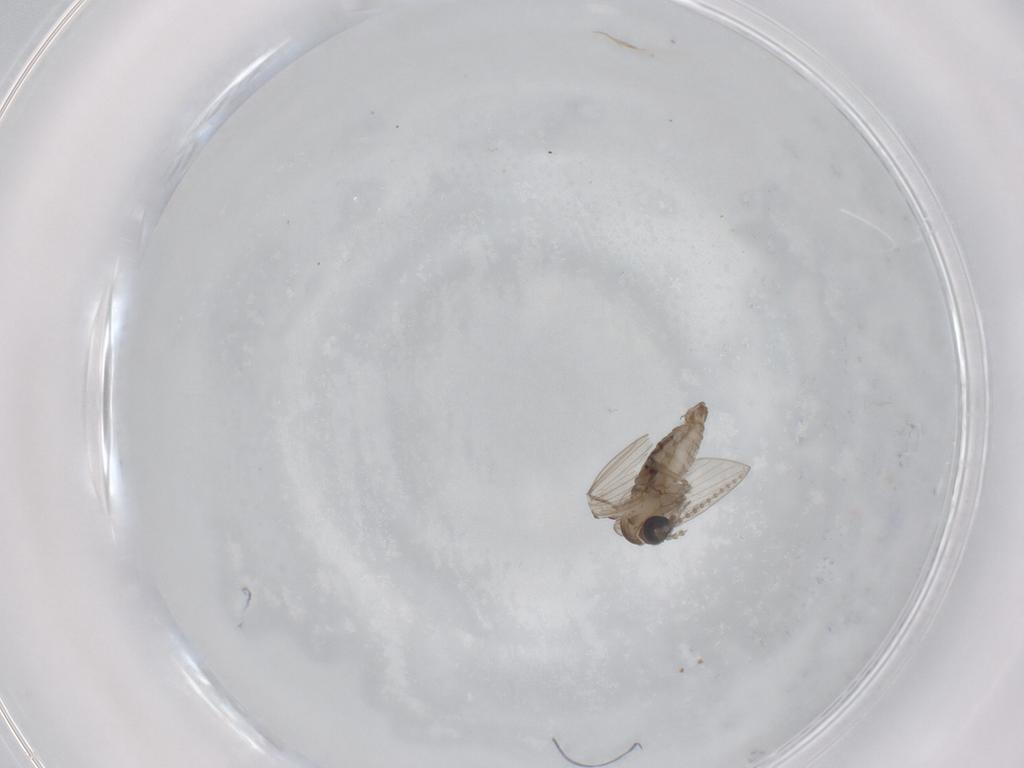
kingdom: Animalia
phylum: Arthropoda
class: Insecta
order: Diptera
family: Psychodidae
